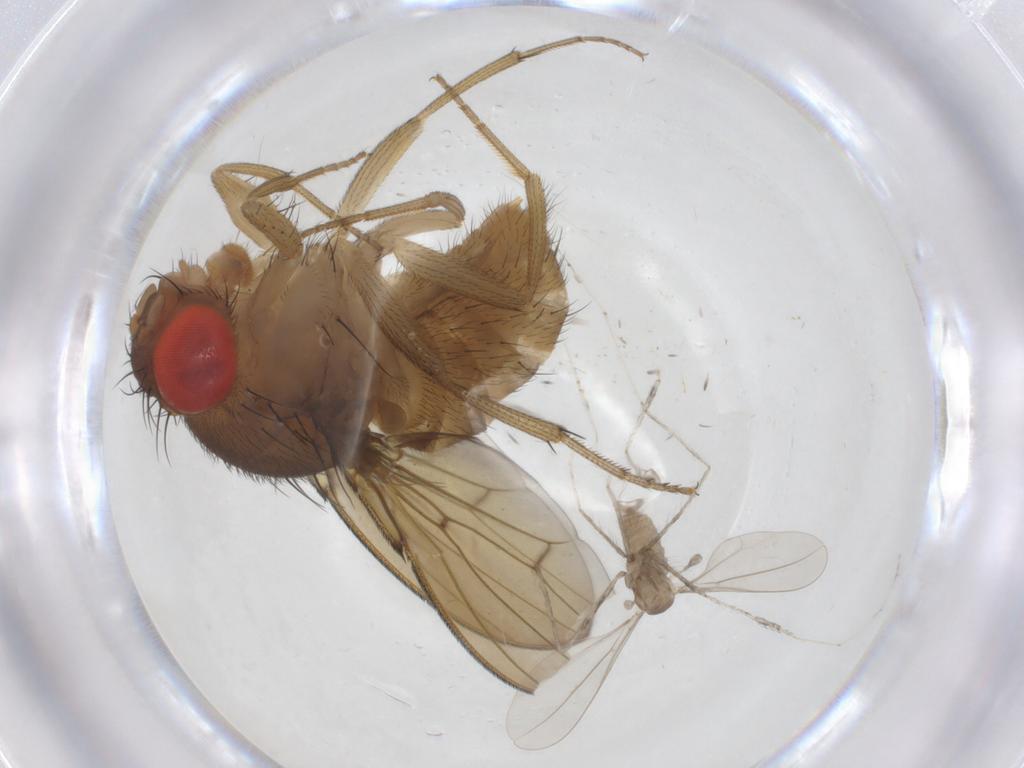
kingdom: Animalia
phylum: Arthropoda
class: Insecta
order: Diptera
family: Drosophilidae
